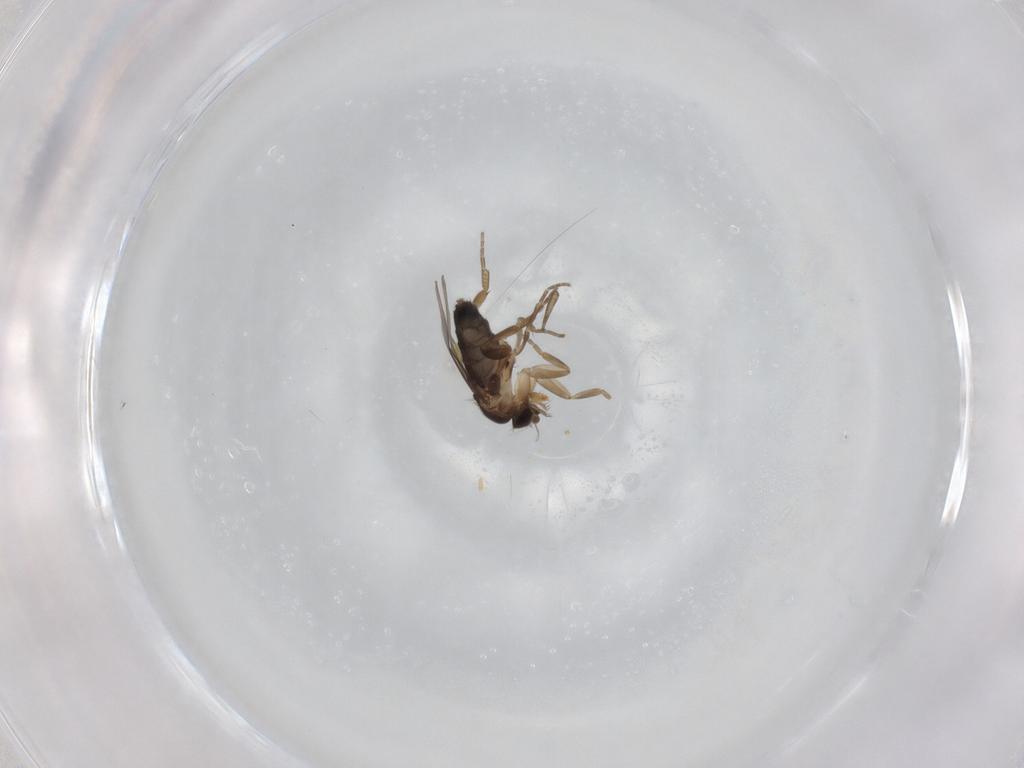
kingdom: Animalia
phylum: Arthropoda
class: Insecta
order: Diptera
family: Phoridae
